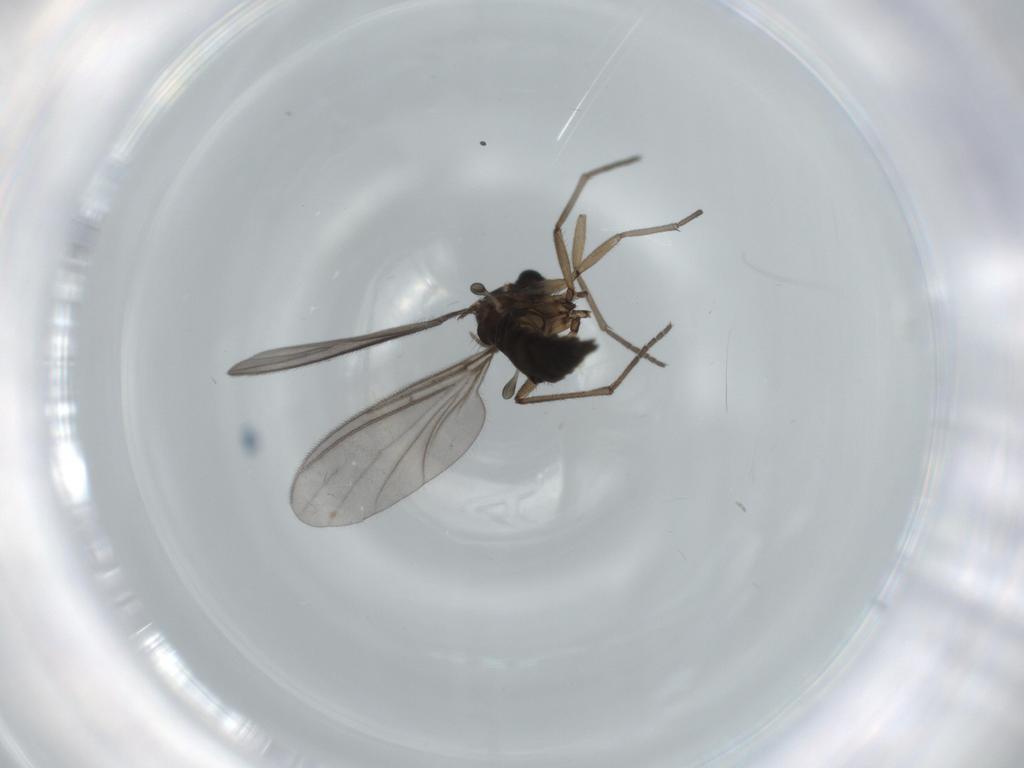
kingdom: Animalia
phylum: Arthropoda
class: Insecta
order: Diptera
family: Sciaridae
